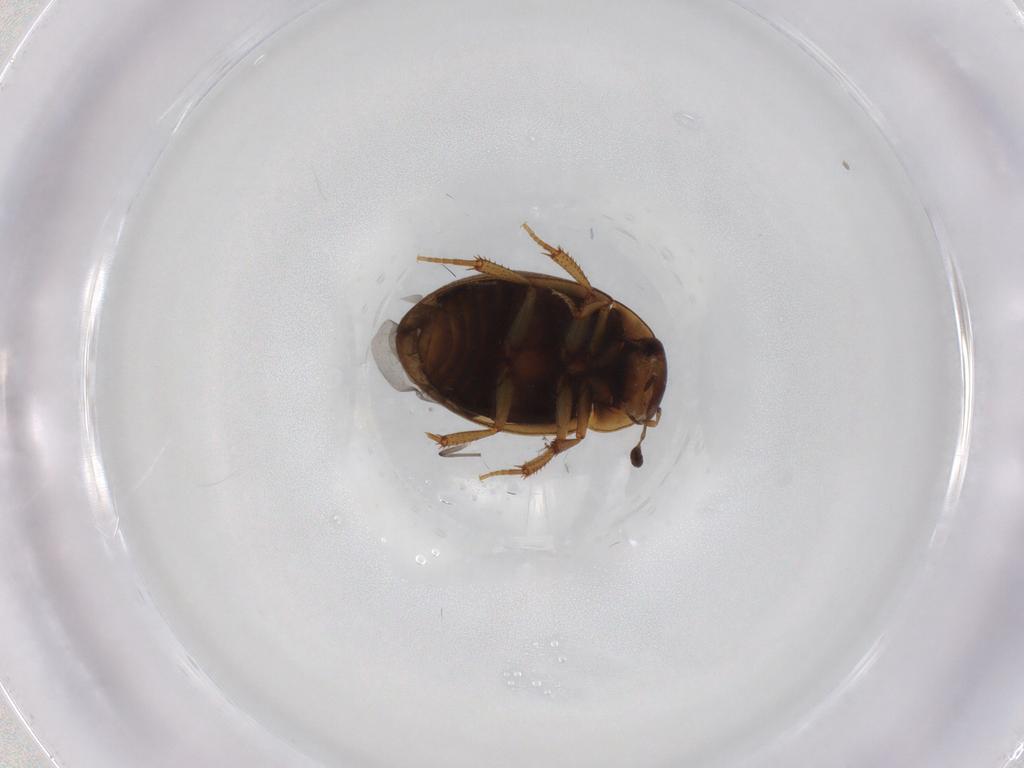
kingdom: Animalia
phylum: Arthropoda
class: Insecta
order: Coleoptera
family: Hydrophilidae
